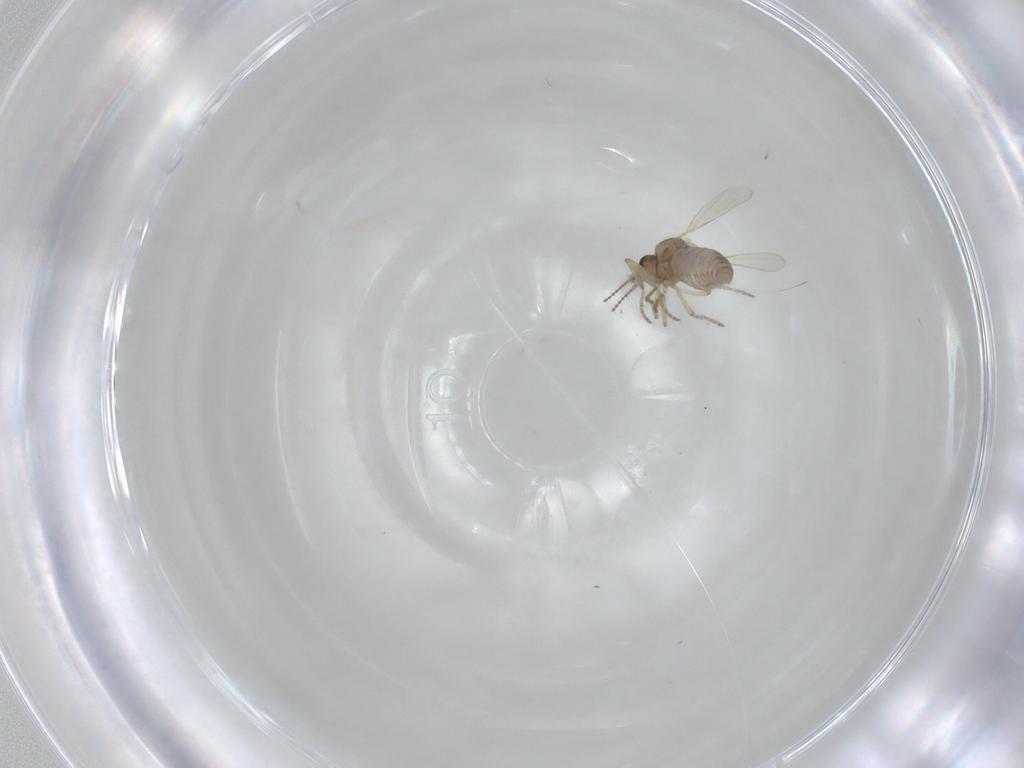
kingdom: Animalia
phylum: Arthropoda
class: Insecta
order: Diptera
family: Ceratopogonidae
